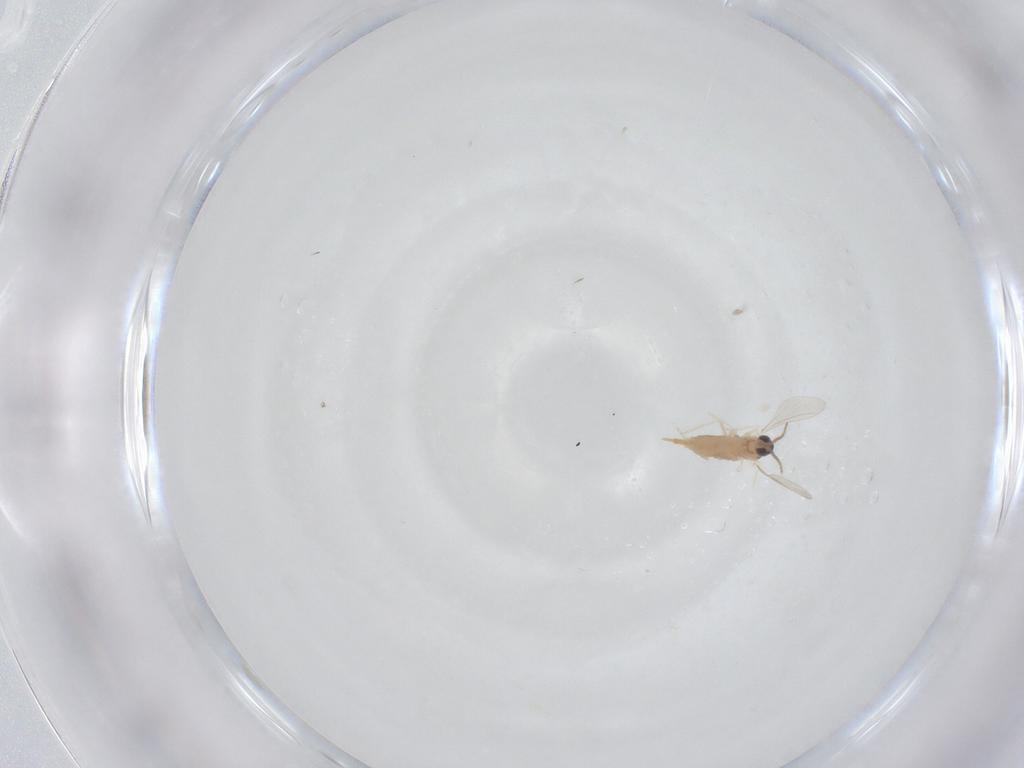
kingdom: Animalia
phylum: Arthropoda
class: Insecta
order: Diptera
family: Cecidomyiidae
